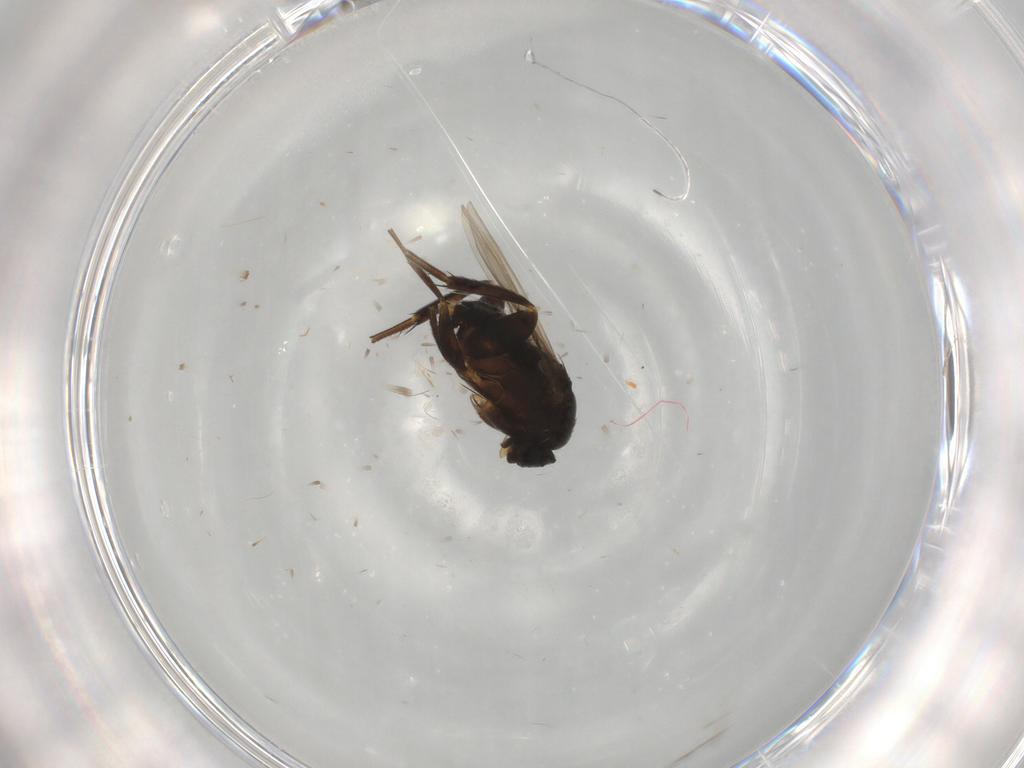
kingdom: Animalia
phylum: Arthropoda
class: Insecta
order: Diptera
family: Phoridae
